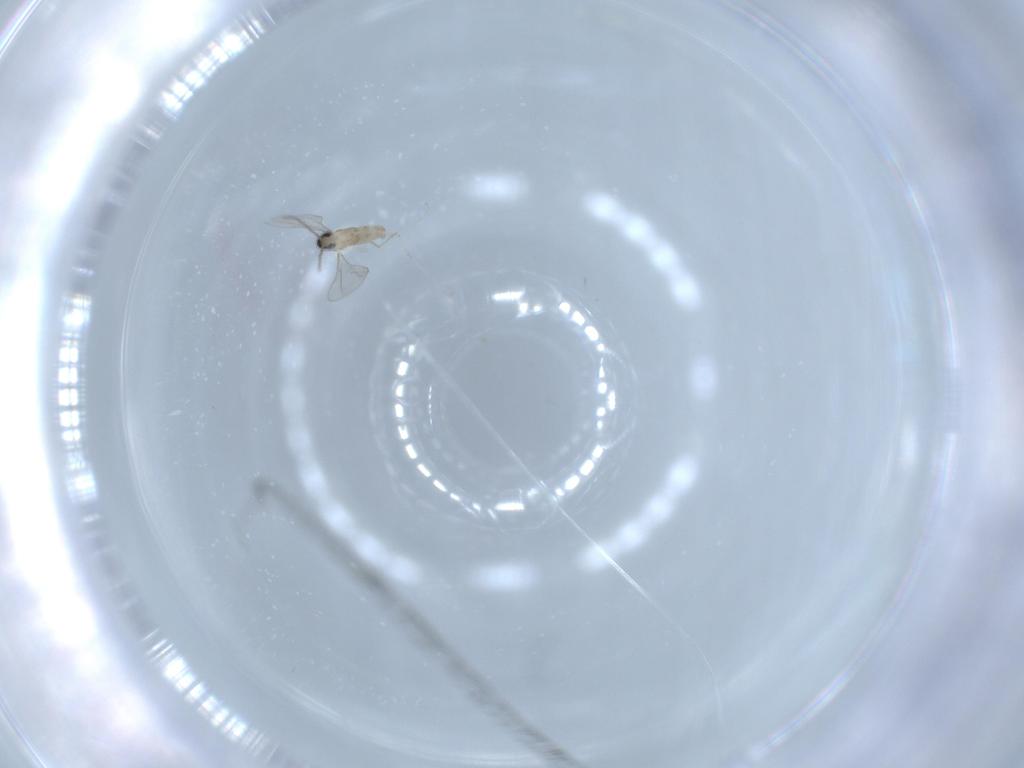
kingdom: Animalia
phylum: Arthropoda
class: Insecta
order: Diptera
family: Cecidomyiidae
